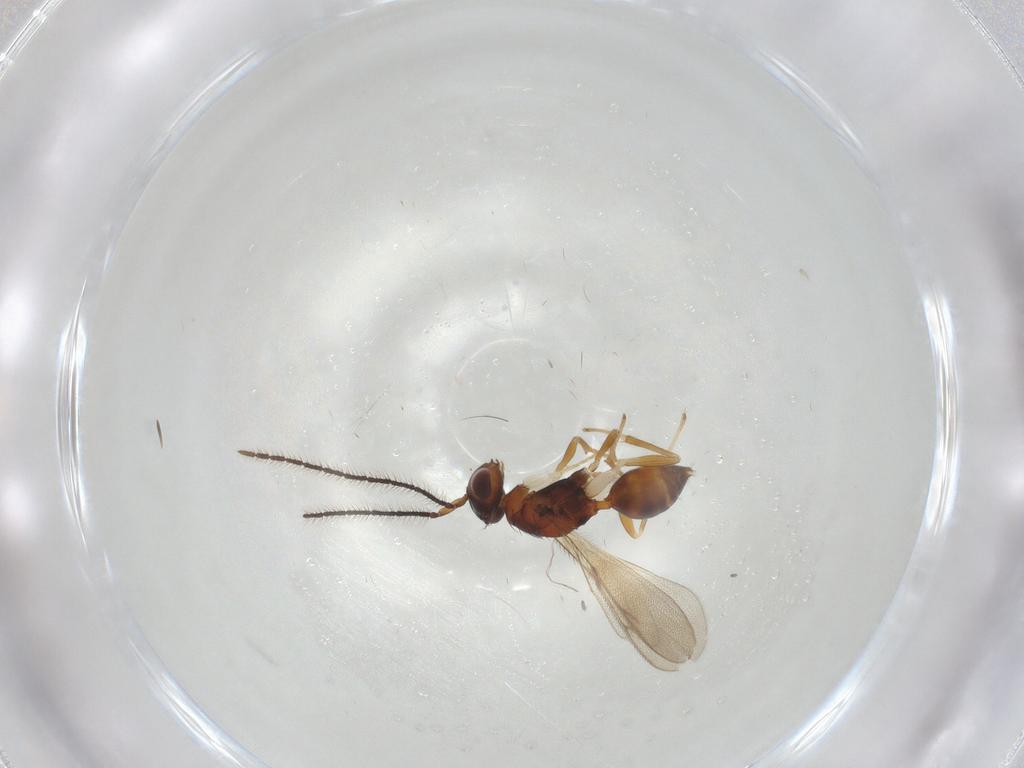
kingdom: Animalia
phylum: Arthropoda
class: Insecta
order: Hymenoptera
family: Diparidae
